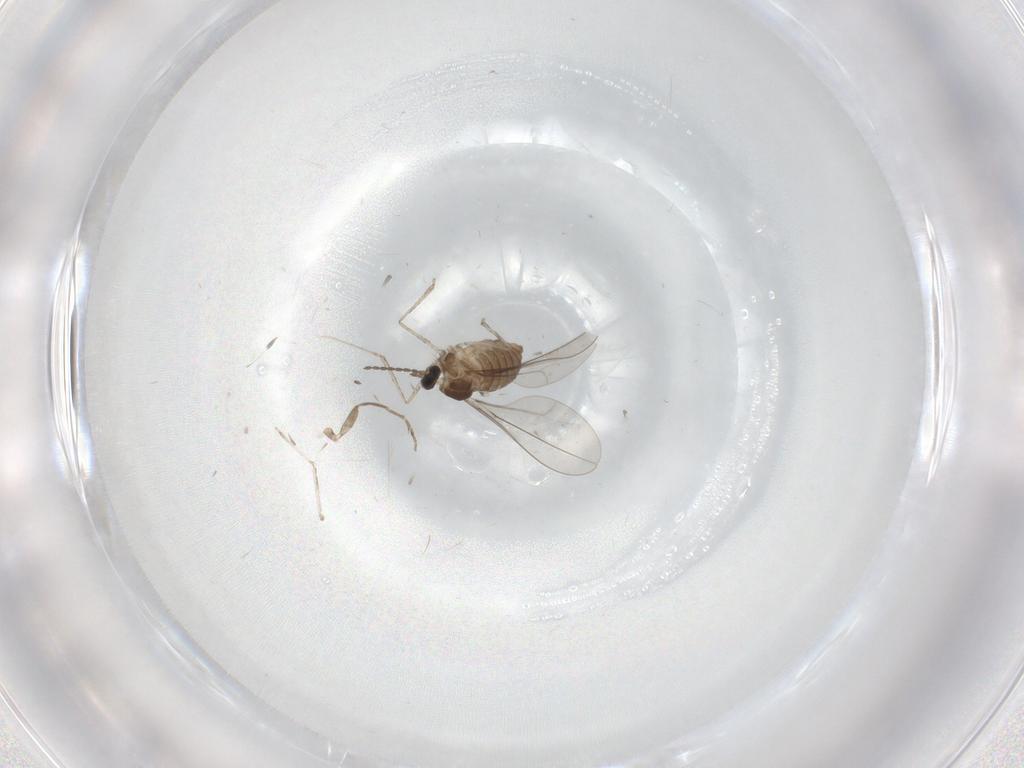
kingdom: Animalia
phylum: Arthropoda
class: Insecta
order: Diptera
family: Cecidomyiidae
